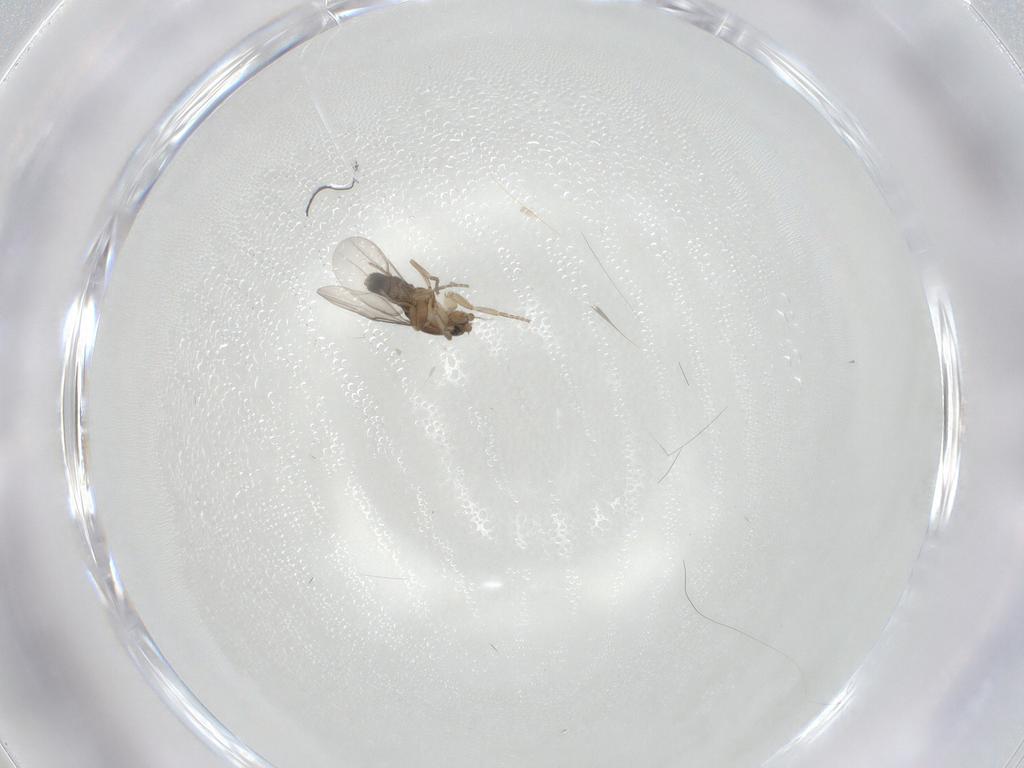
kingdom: Animalia
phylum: Arthropoda
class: Insecta
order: Diptera
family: Phoridae
